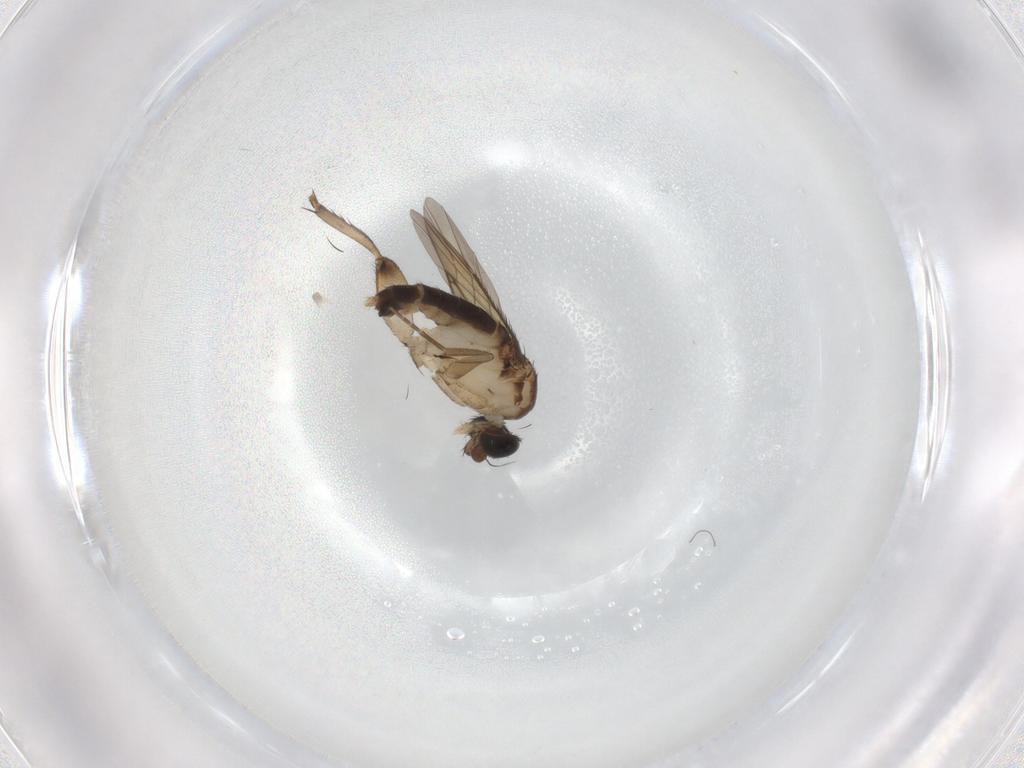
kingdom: Animalia
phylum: Arthropoda
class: Insecta
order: Diptera
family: Phoridae
